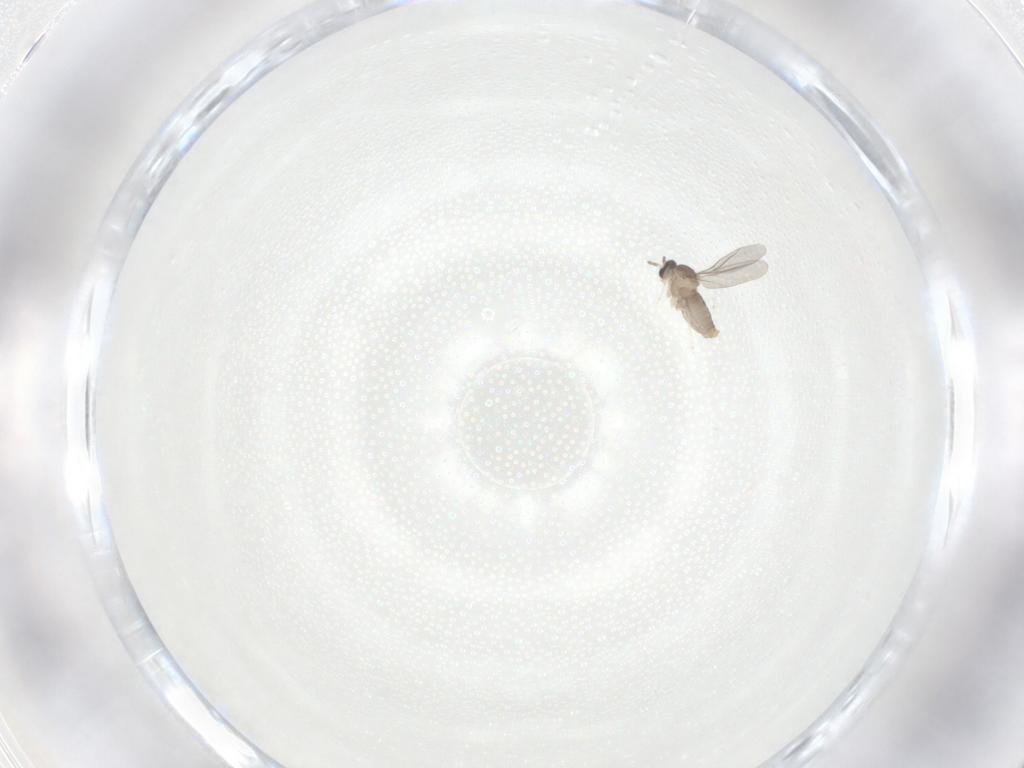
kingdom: Animalia
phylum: Arthropoda
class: Insecta
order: Diptera
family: Cecidomyiidae
